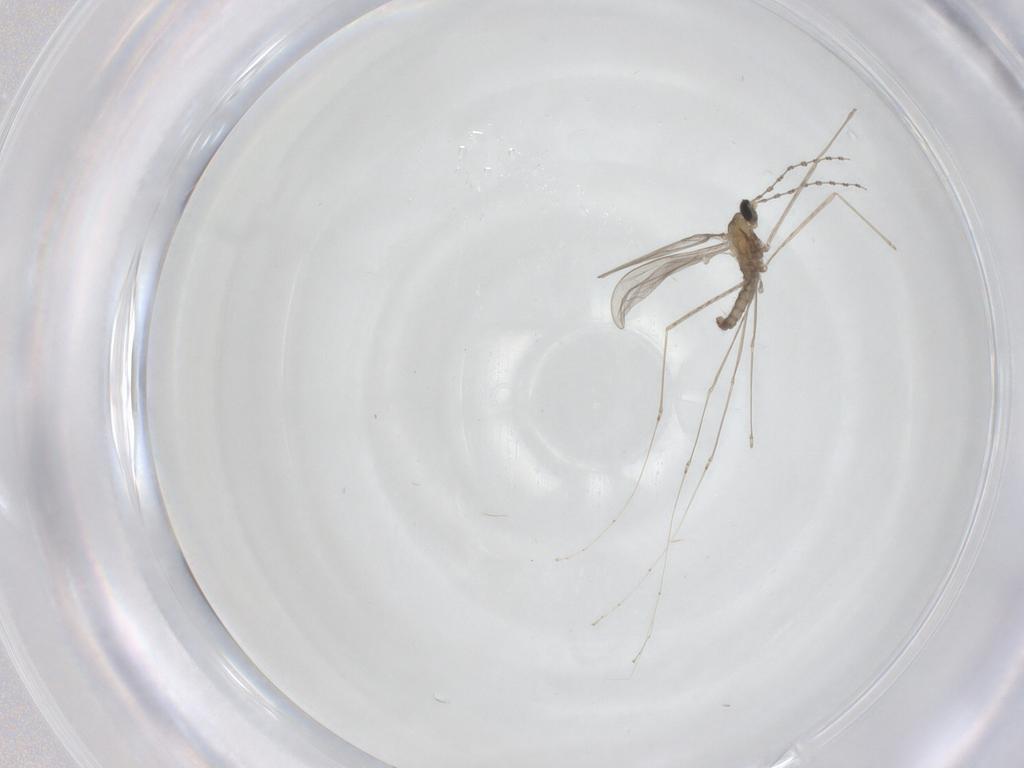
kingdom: Animalia
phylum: Arthropoda
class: Insecta
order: Diptera
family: Cecidomyiidae
